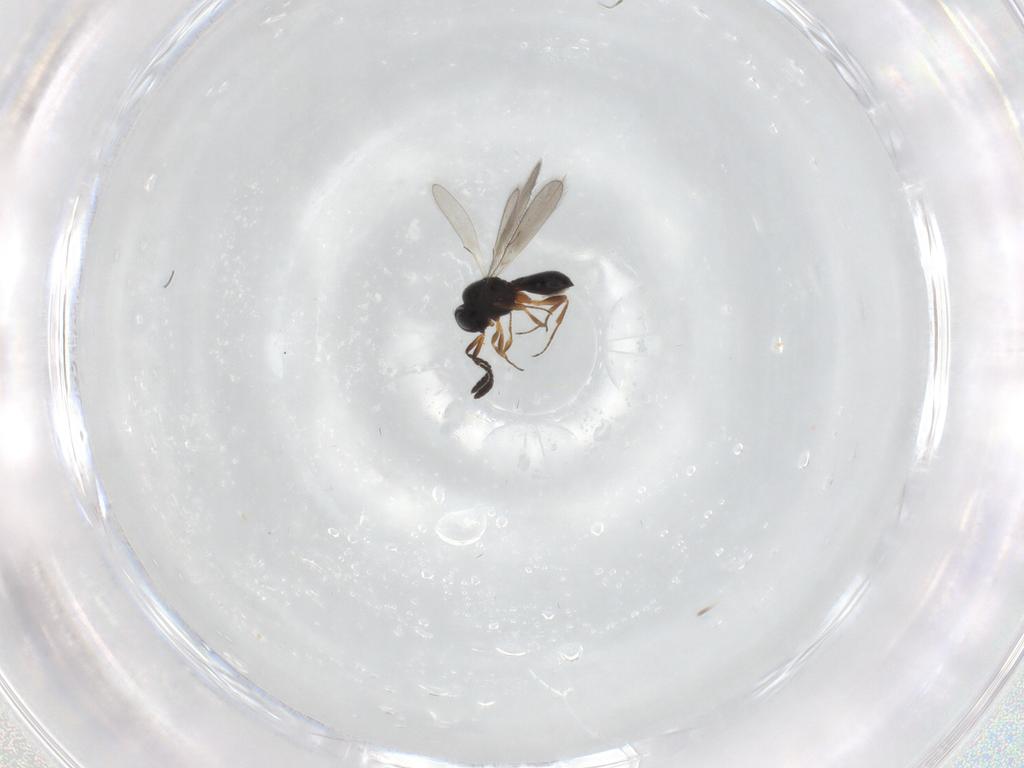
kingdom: Animalia
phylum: Arthropoda
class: Insecta
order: Hymenoptera
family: Scelionidae
